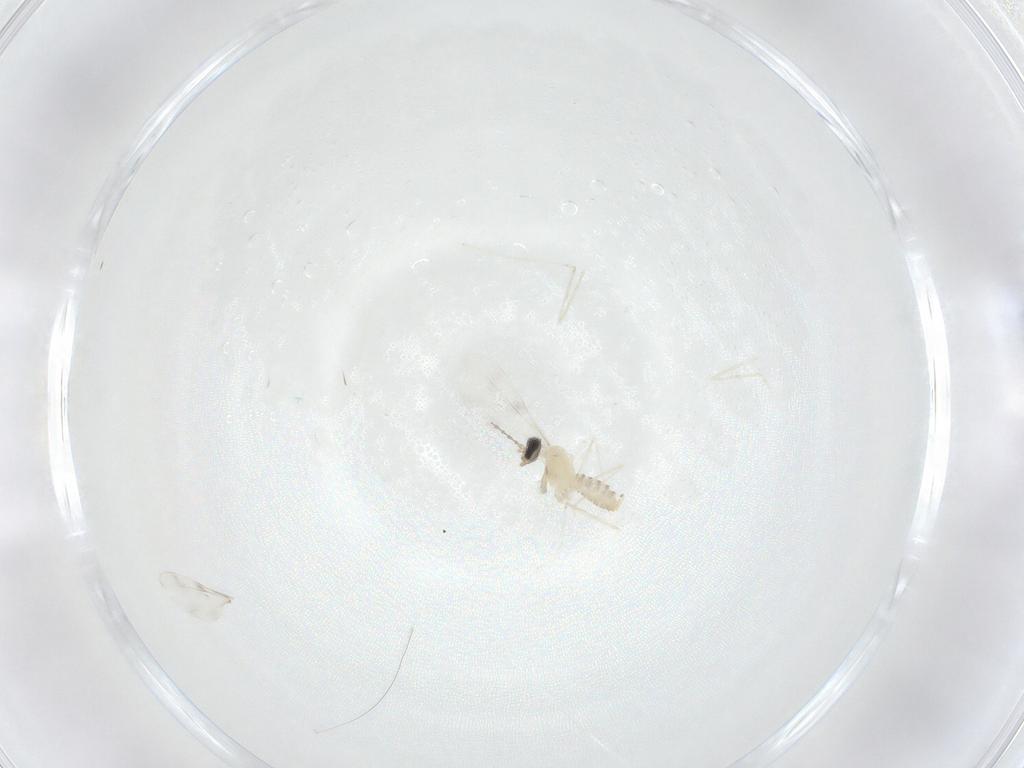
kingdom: Animalia
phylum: Arthropoda
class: Insecta
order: Diptera
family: Cecidomyiidae
